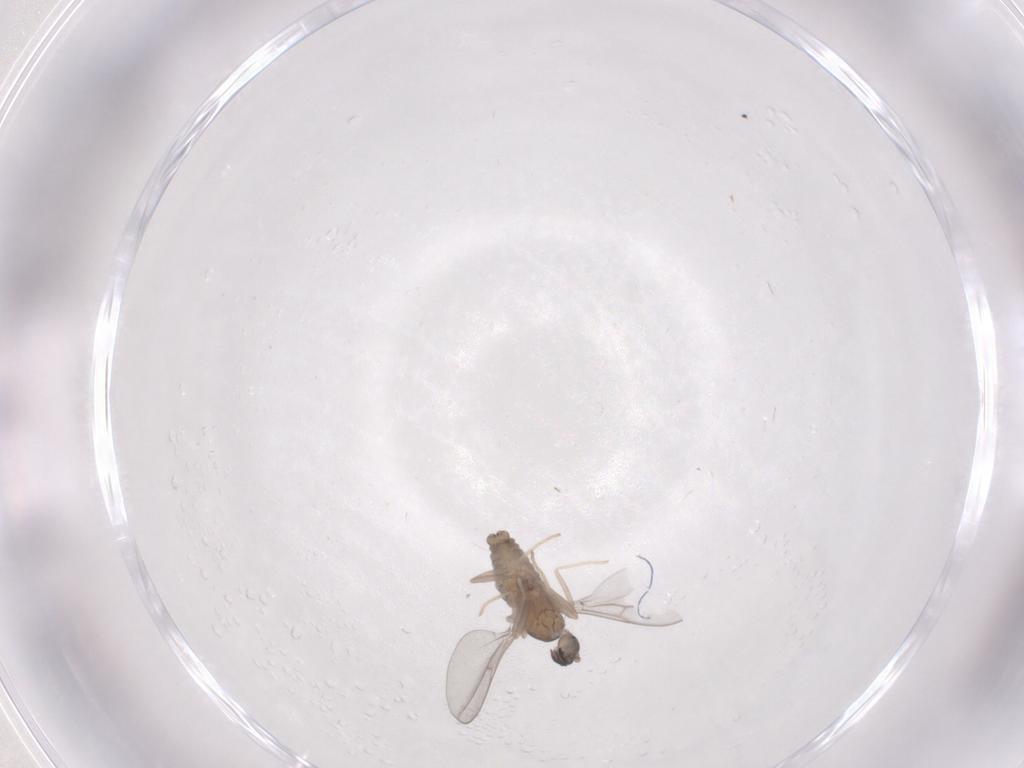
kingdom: Animalia
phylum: Arthropoda
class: Insecta
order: Diptera
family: Cecidomyiidae
